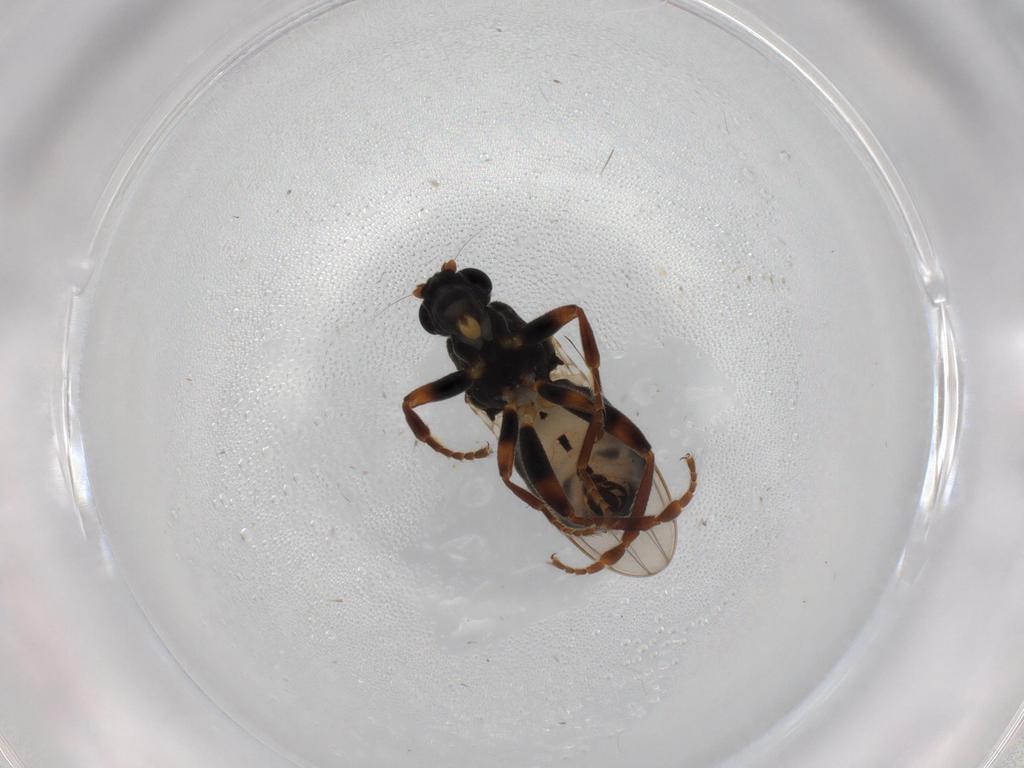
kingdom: Animalia
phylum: Arthropoda
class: Insecta
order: Diptera
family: Sphaeroceridae
